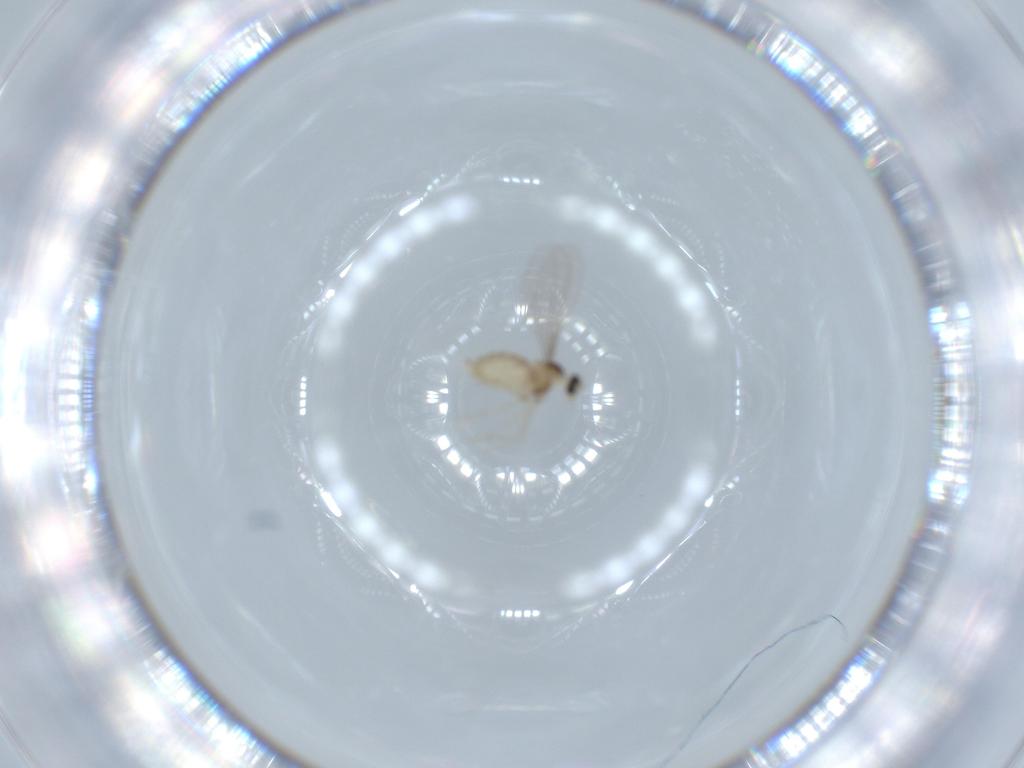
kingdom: Animalia
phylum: Arthropoda
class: Insecta
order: Diptera
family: Cecidomyiidae
